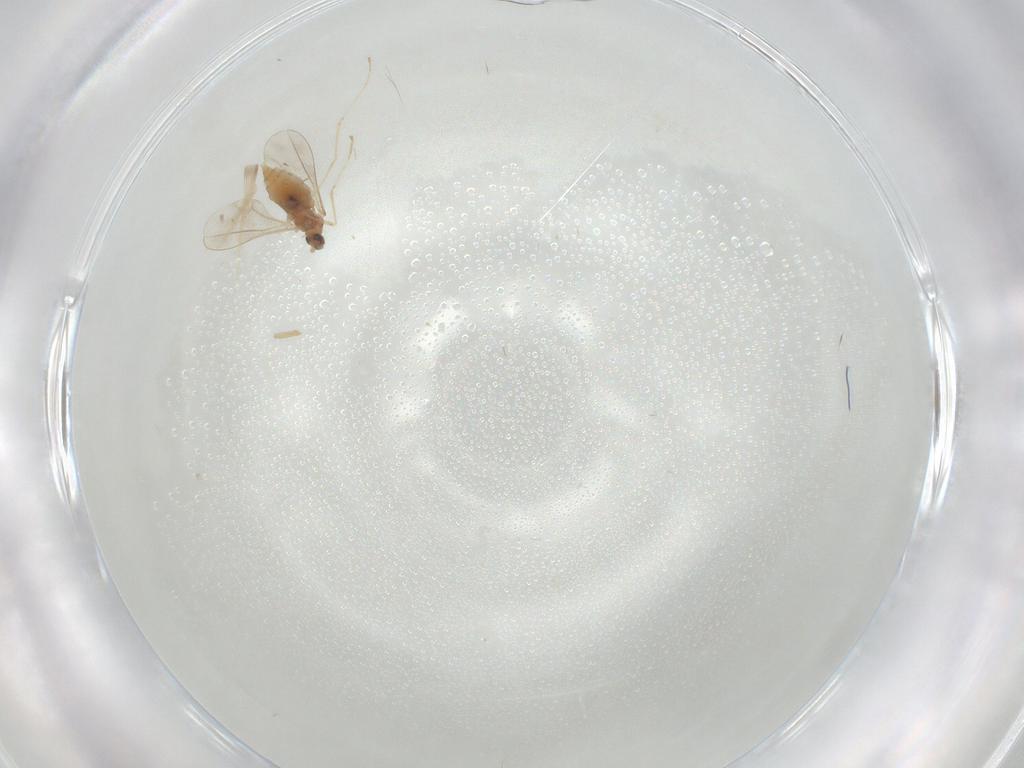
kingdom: Animalia
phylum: Arthropoda
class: Insecta
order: Diptera
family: Cecidomyiidae
